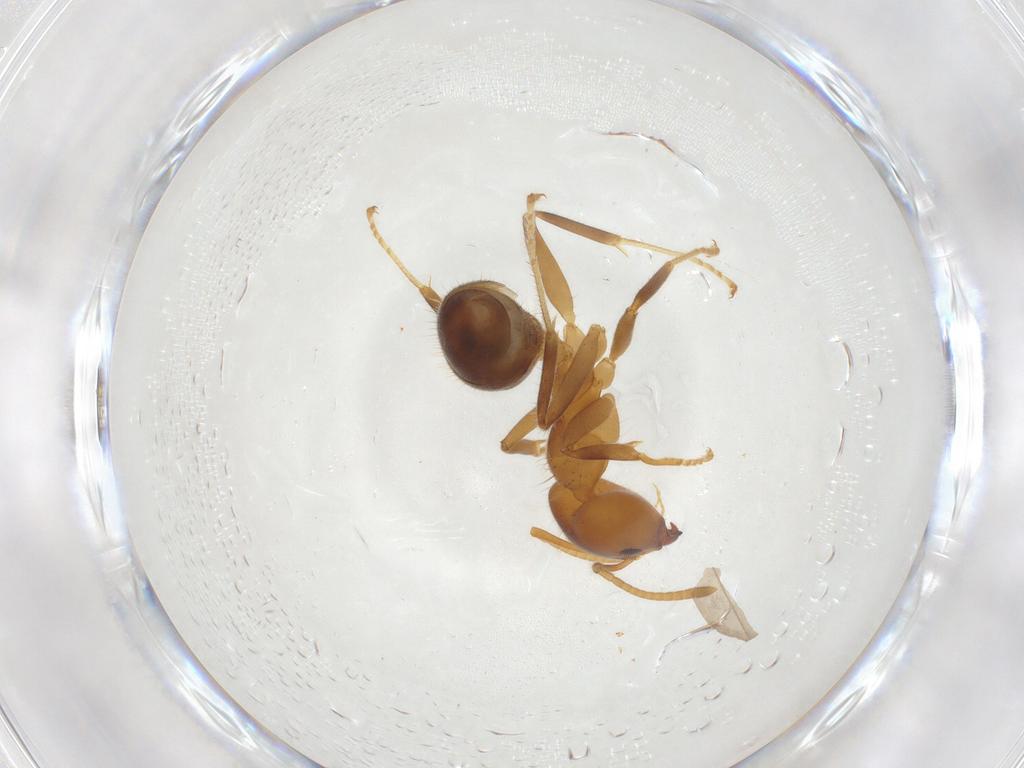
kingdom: Animalia
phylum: Arthropoda
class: Insecta
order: Hymenoptera
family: Formicidae
